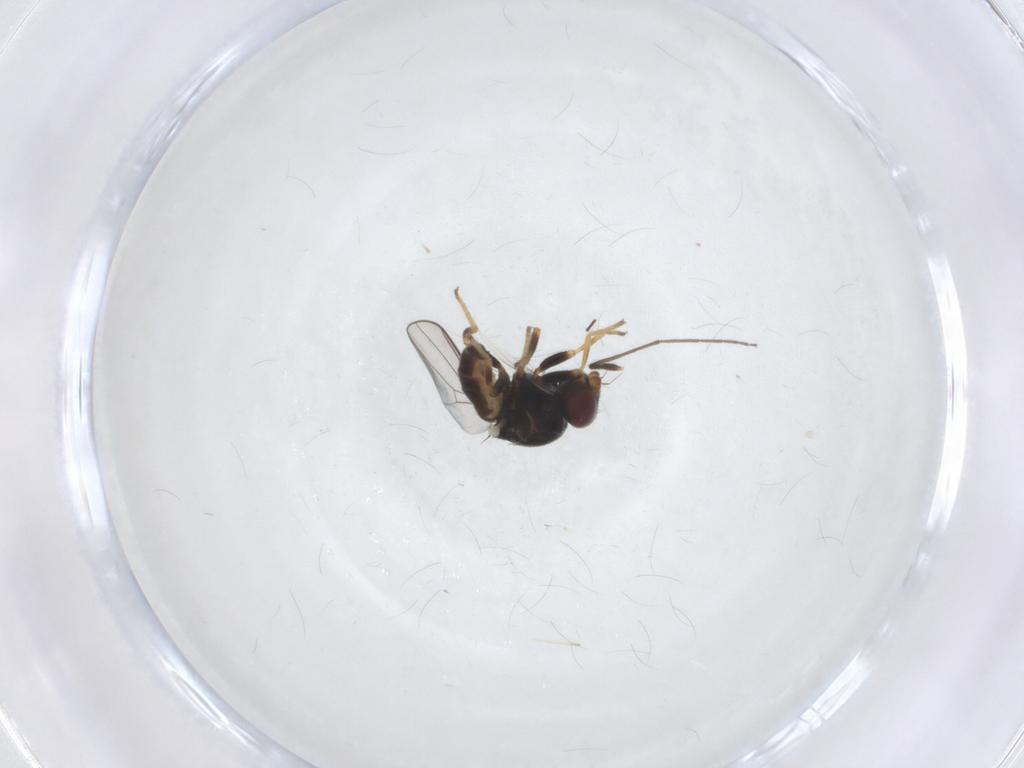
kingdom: Animalia
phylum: Arthropoda
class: Insecta
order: Diptera
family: Chloropidae
